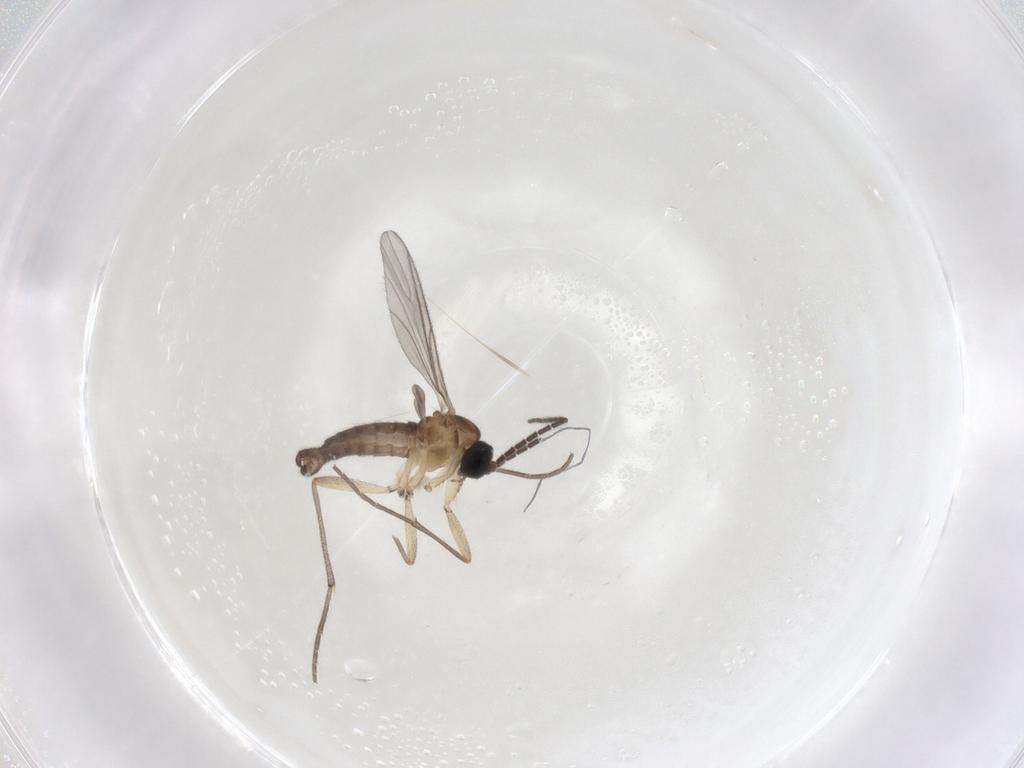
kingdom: Animalia
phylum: Arthropoda
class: Insecta
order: Diptera
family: Sciaridae
